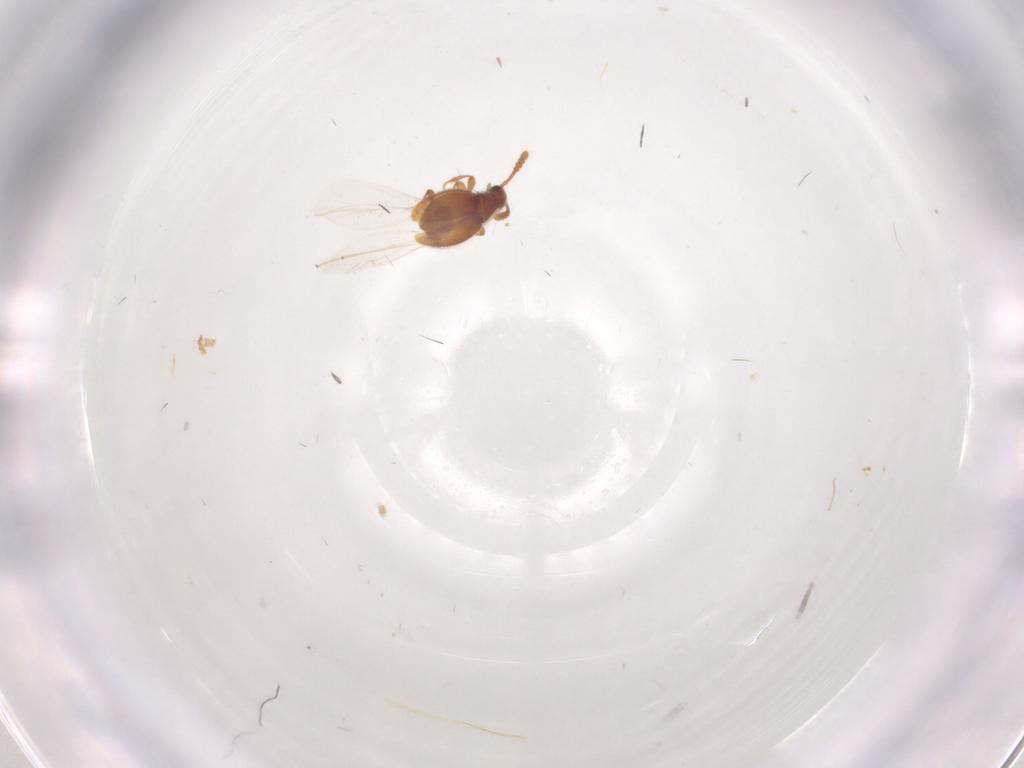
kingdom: Animalia
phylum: Arthropoda
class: Insecta
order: Coleoptera
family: Staphylinidae
